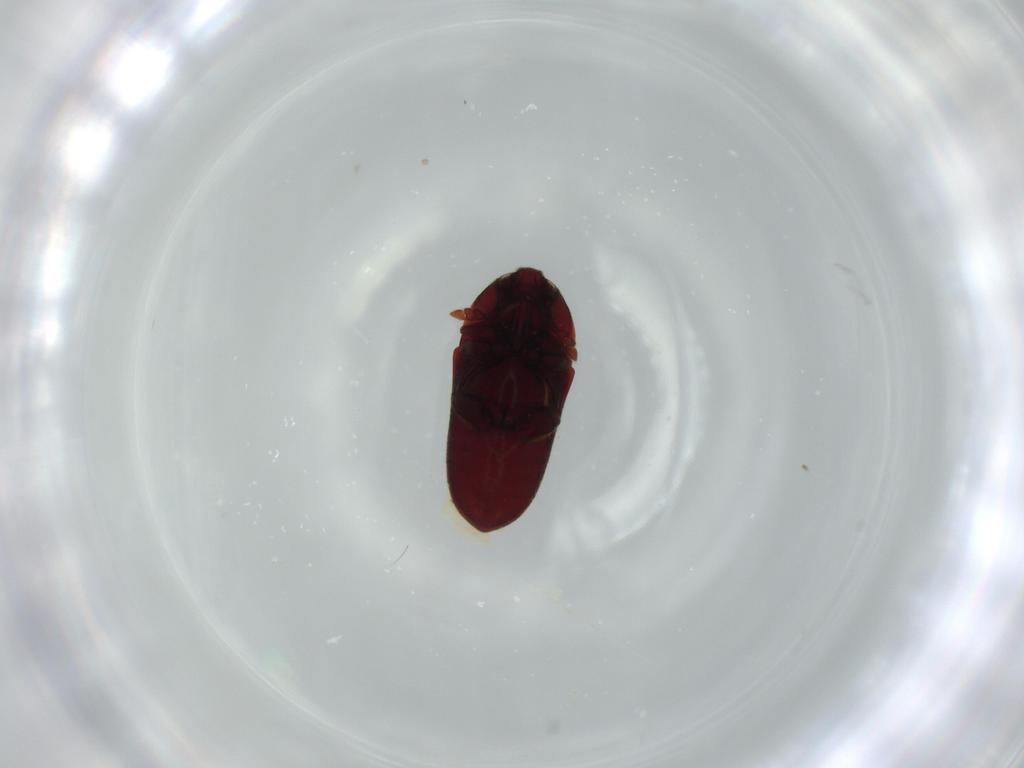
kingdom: Animalia
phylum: Arthropoda
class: Insecta
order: Coleoptera
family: Throscidae
